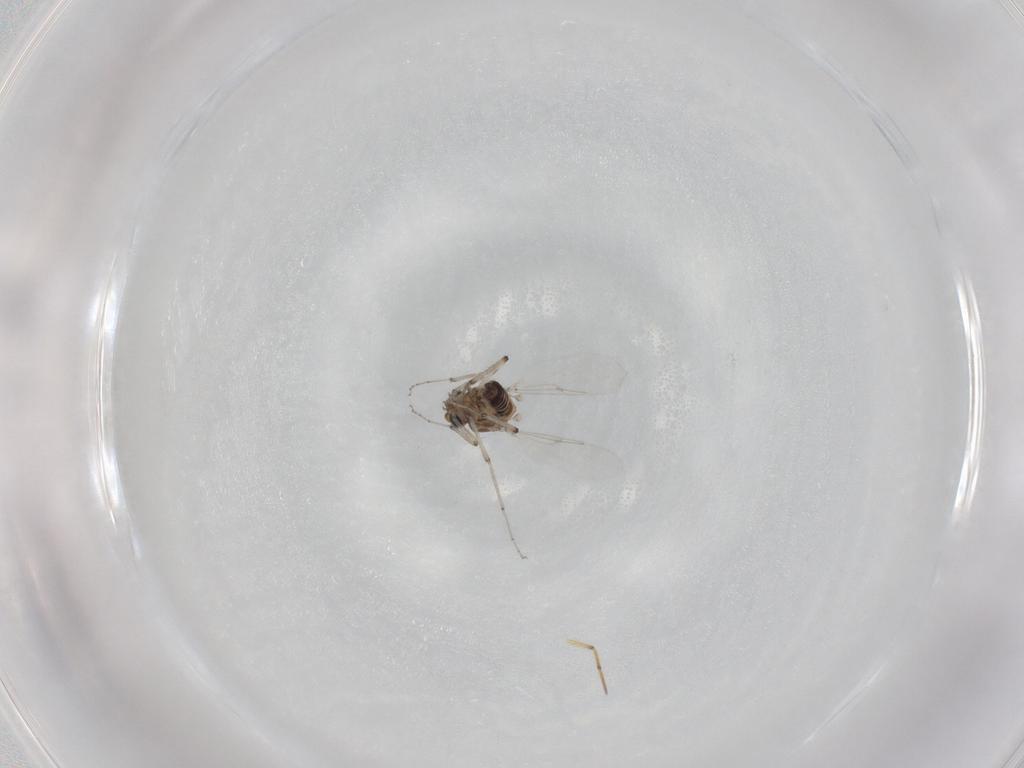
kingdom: Animalia
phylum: Arthropoda
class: Insecta
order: Diptera
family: Ceratopogonidae
